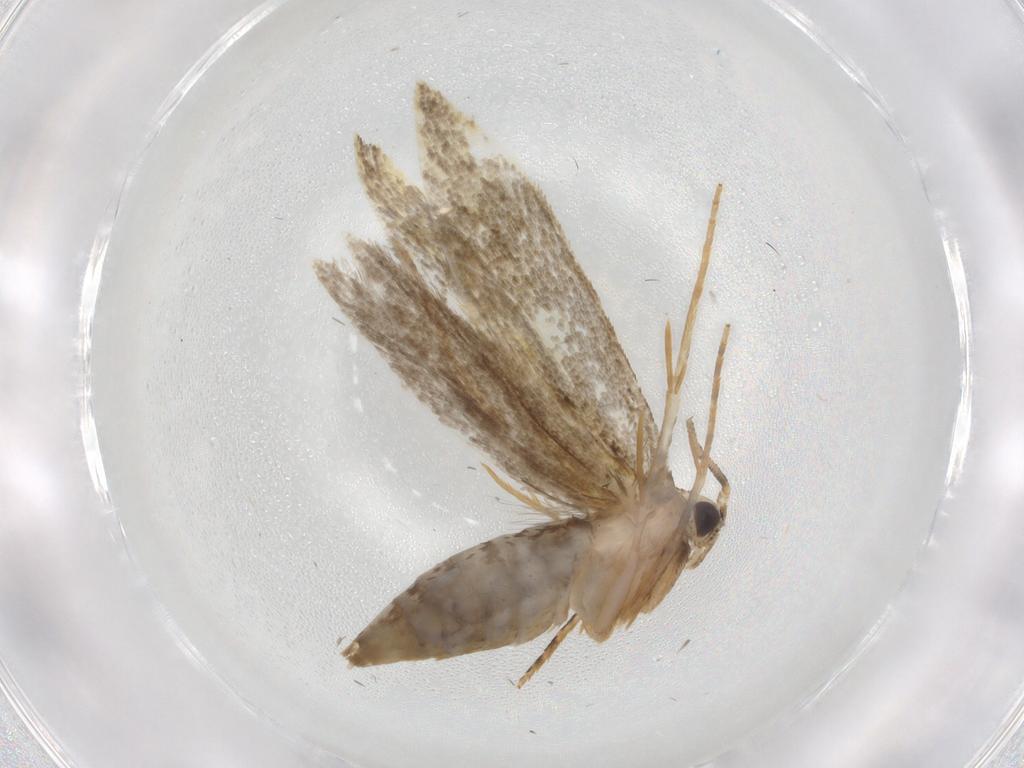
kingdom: Animalia
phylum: Arthropoda
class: Insecta
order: Lepidoptera
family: Tineidae
